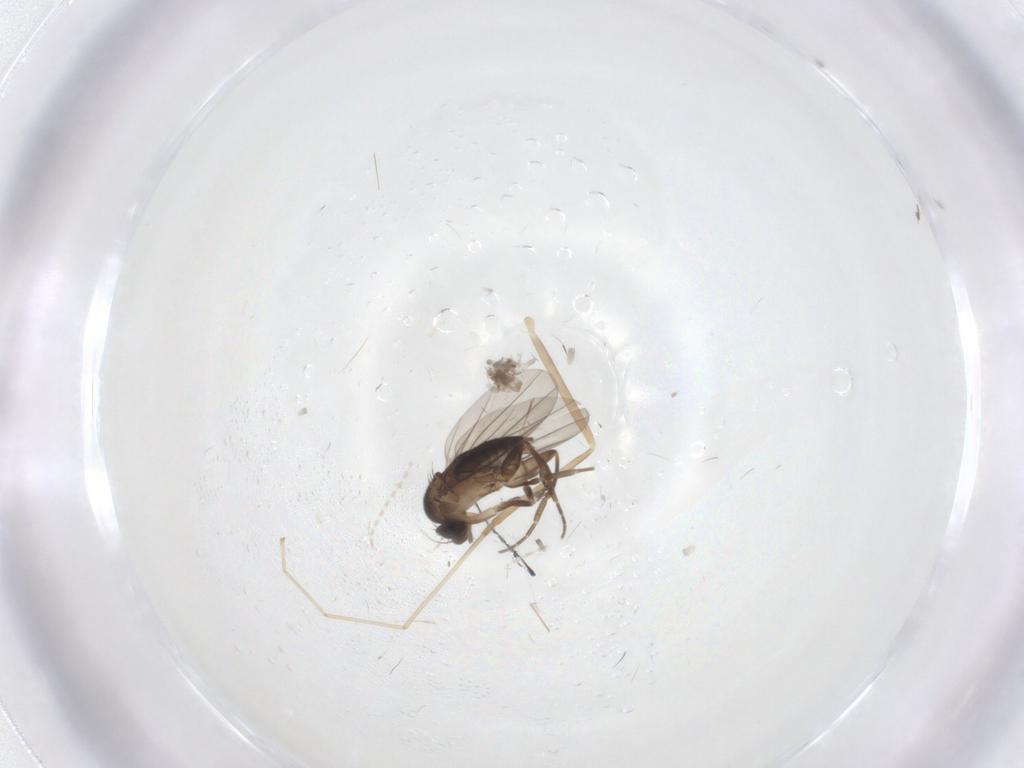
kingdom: Animalia
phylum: Arthropoda
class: Insecta
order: Diptera
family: Cecidomyiidae
